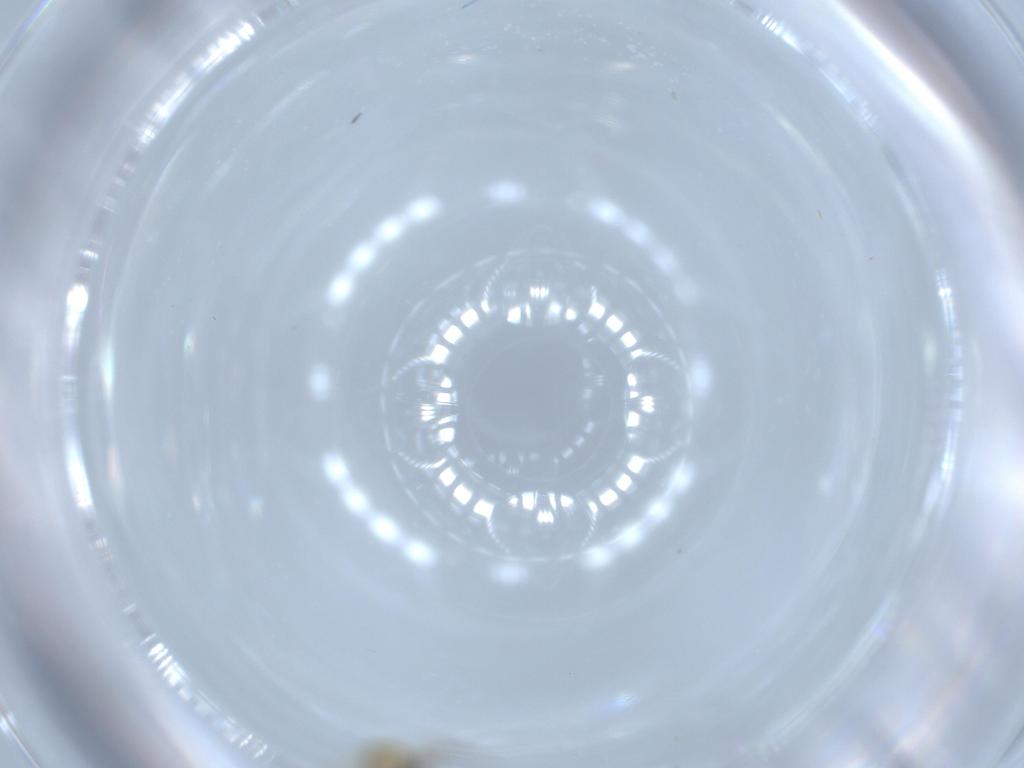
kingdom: Animalia
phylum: Arthropoda
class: Insecta
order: Diptera
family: Ceratopogonidae
